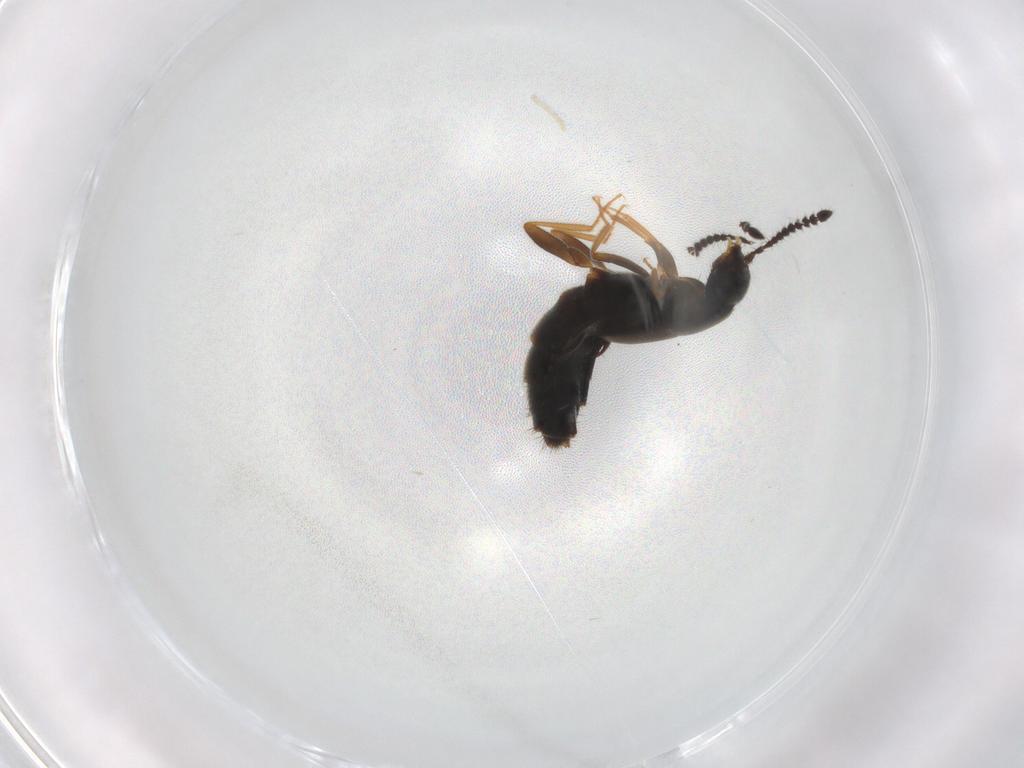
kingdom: Animalia
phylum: Arthropoda
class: Insecta
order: Coleoptera
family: Staphylinidae
